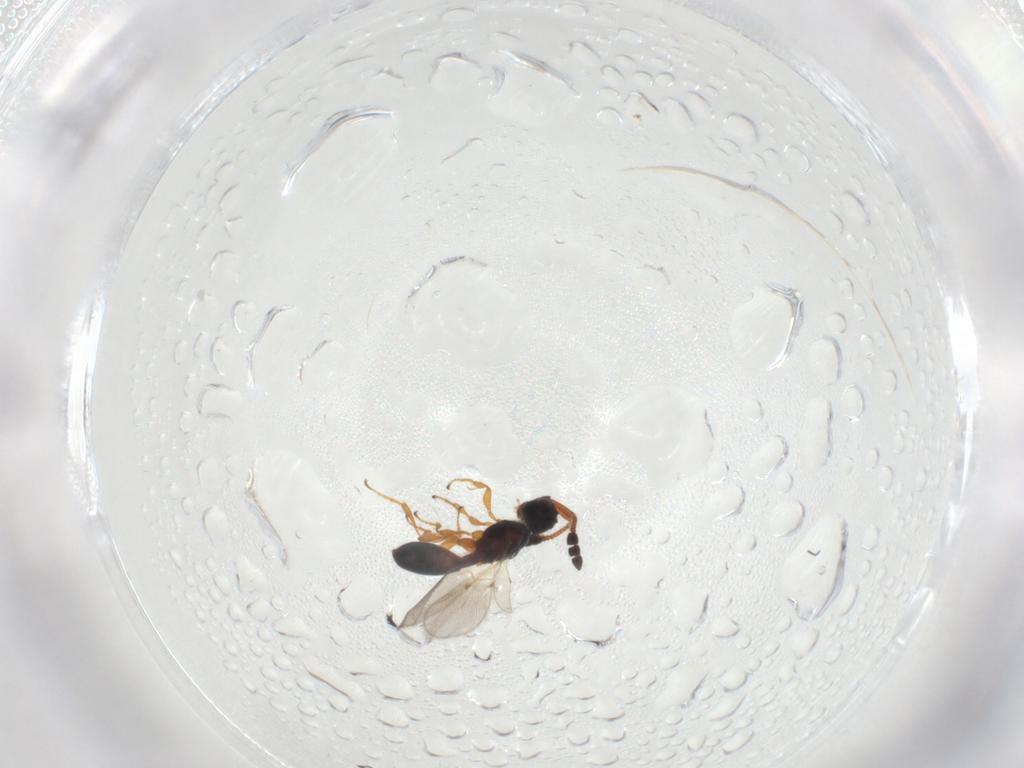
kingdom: Animalia
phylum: Arthropoda
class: Insecta
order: Hymenoptera
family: Diapriidae
